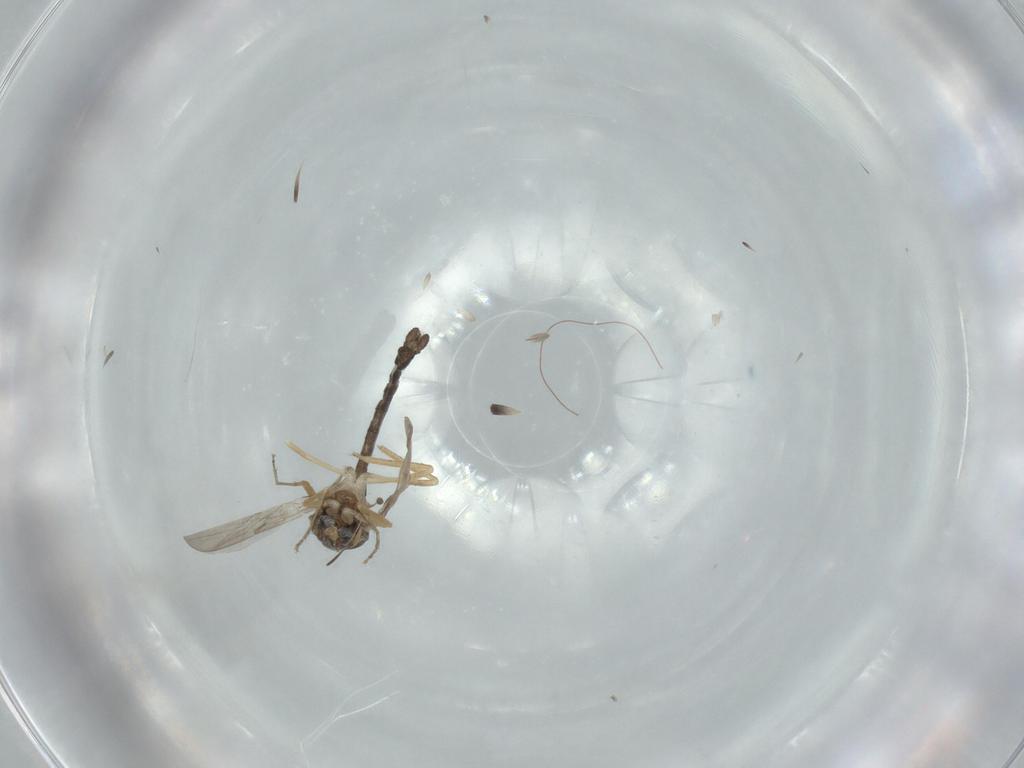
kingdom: Animalia
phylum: Arthropoda
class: Insecta
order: Diptera
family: Ceratopogonidae
